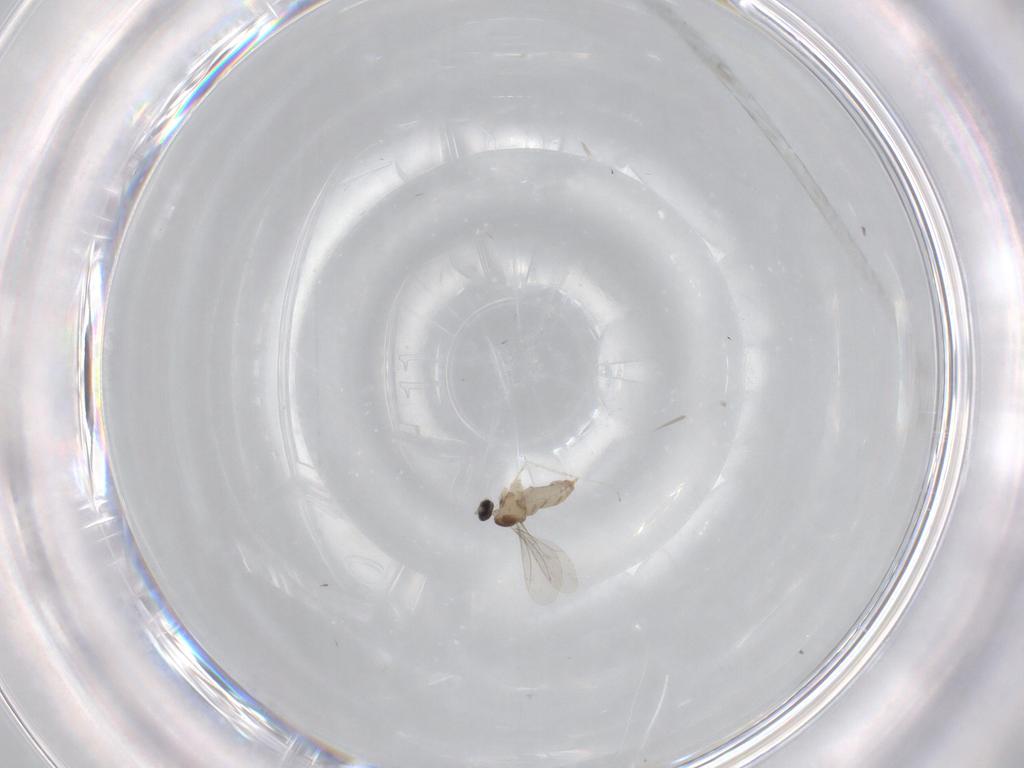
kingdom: Animalia
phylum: Arthropoda
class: Insecta
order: Diptera
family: Cecidomyiidae
